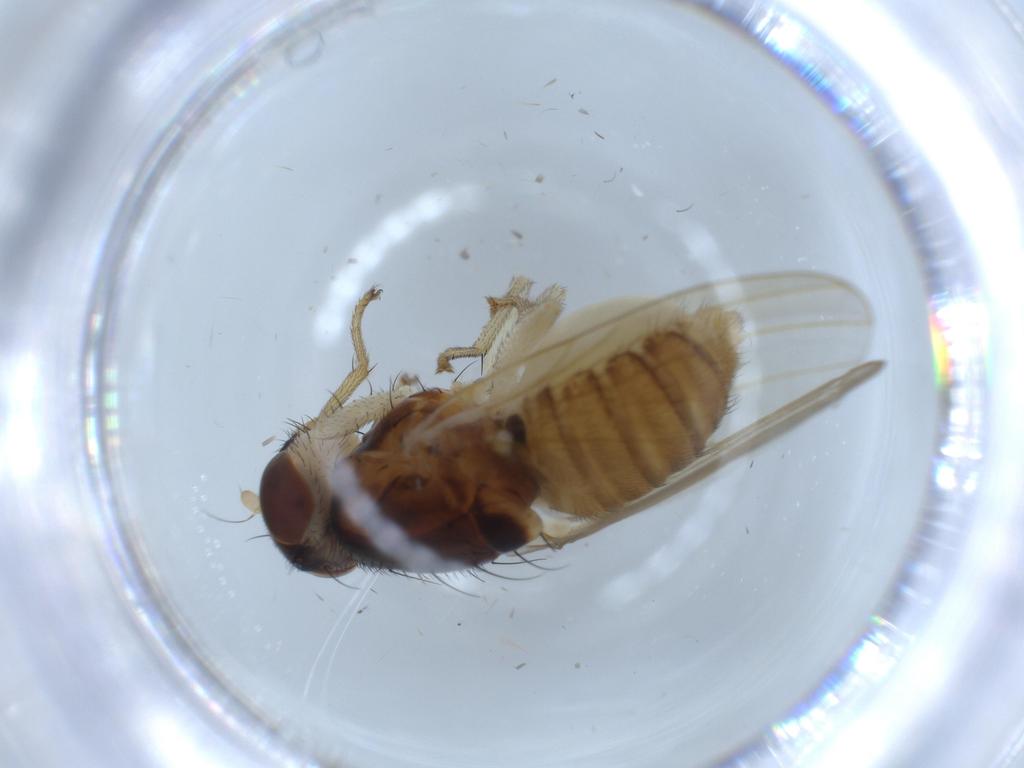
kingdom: Animalia
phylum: Arthropoda
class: Insecta
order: Diptera
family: Lauxaniidae
